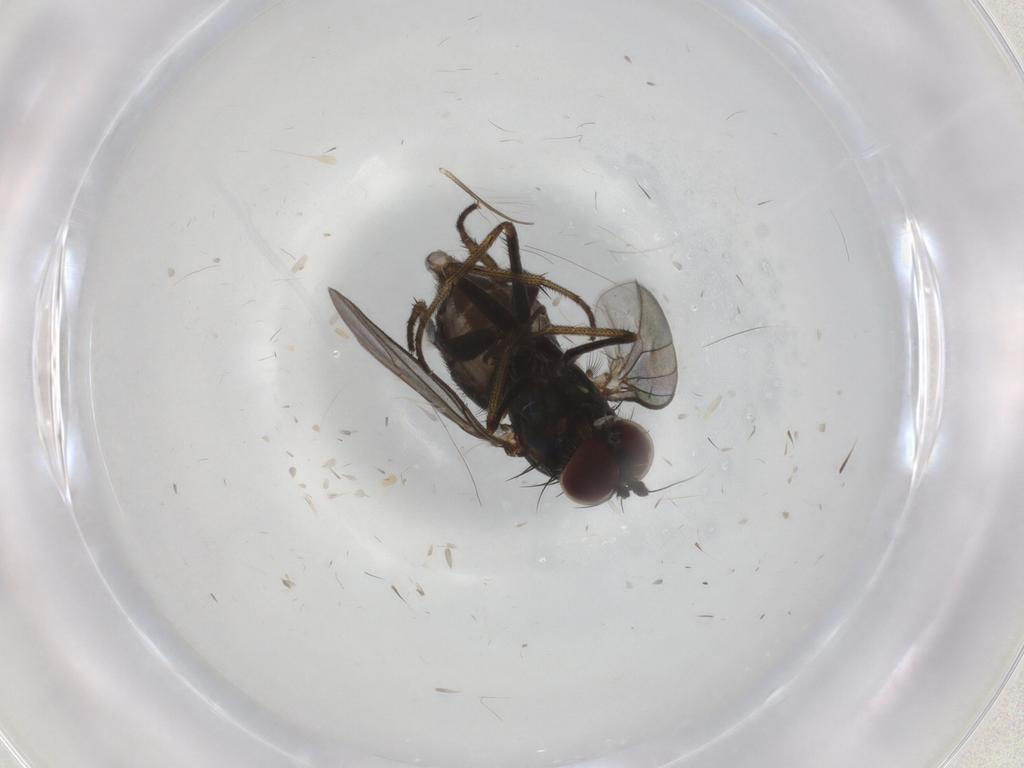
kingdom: Animalia
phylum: Arthropoda
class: Insecta
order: Diptera
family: Dolichopodidae
